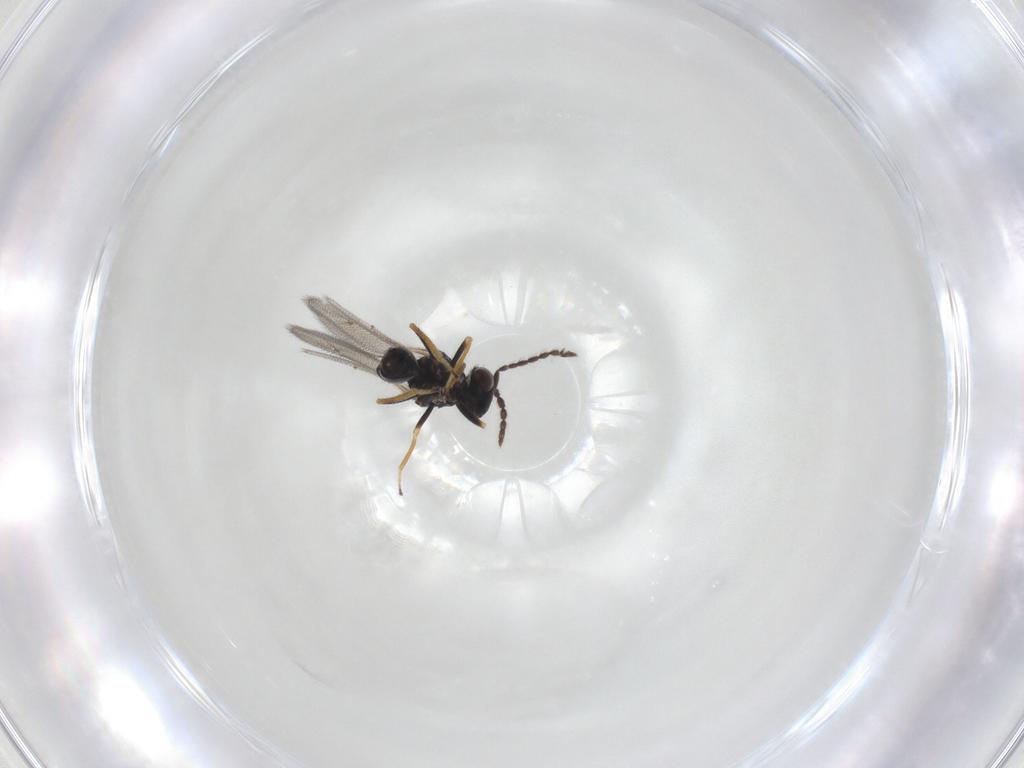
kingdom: Animalia
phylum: Arthropoda
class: Insecta
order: Hymenoptera
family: Eulophidae
